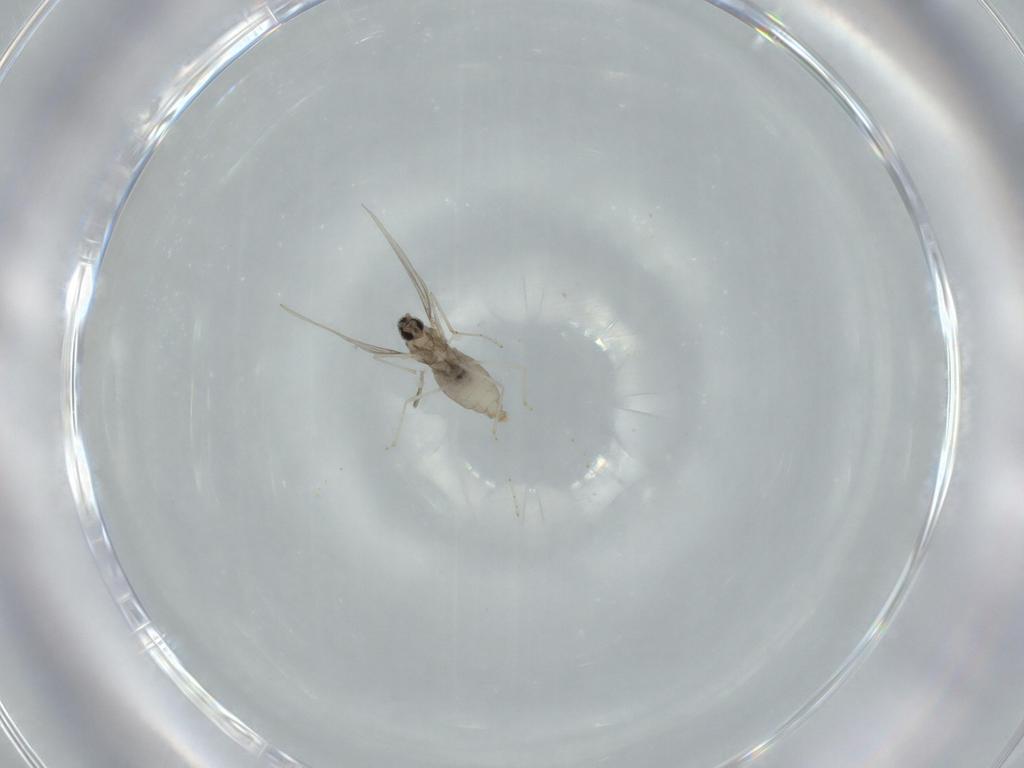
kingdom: Animalia
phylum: Arthropoda
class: Insecta
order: Diptera
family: Cecidomyiidae
